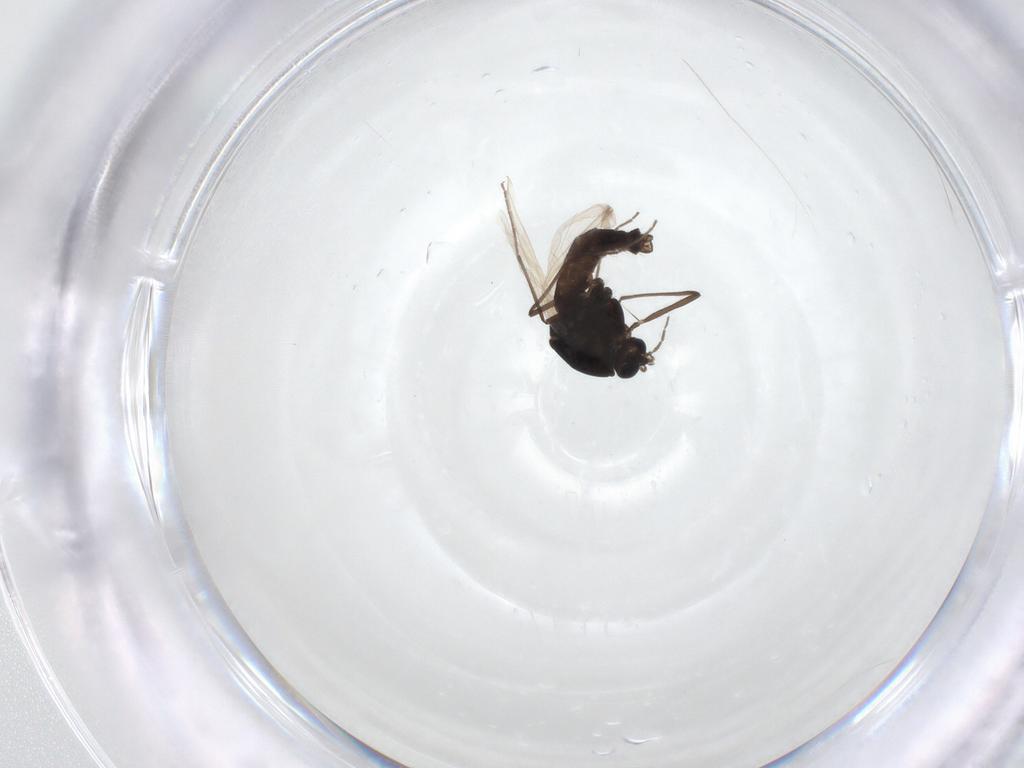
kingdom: Animalia
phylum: Arthropoda
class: Insecta
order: Diptera
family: Chironomidae
